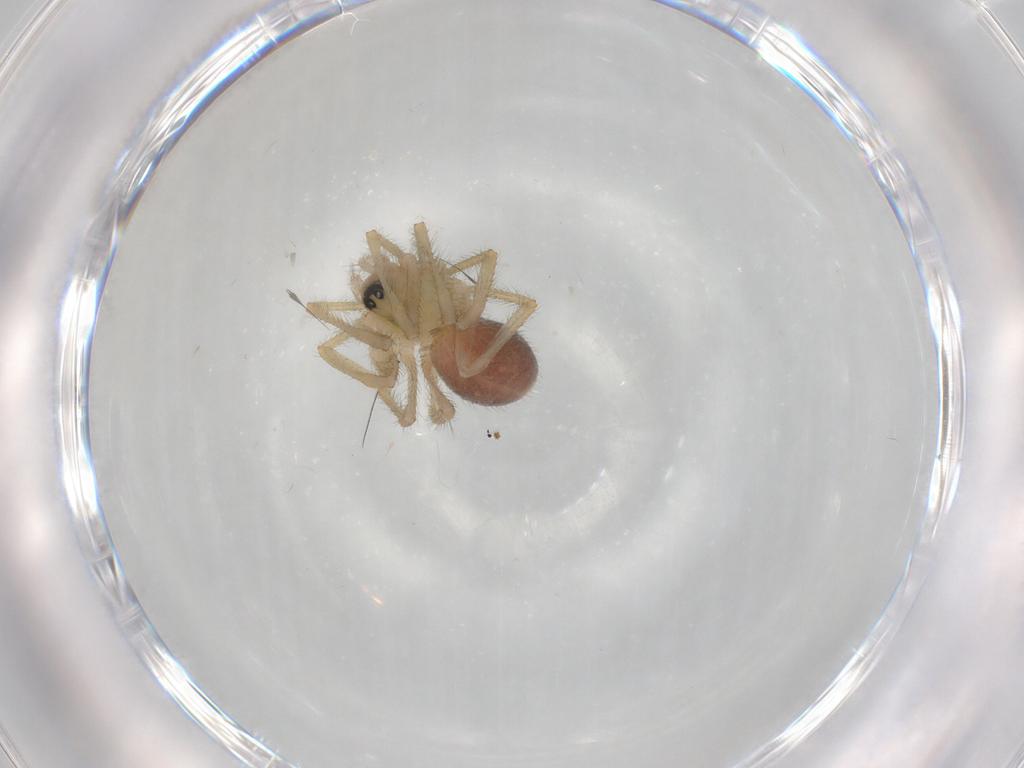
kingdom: Animalia
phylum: Arthropoda
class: Arachnida
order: Araneae
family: Linyphiidae
